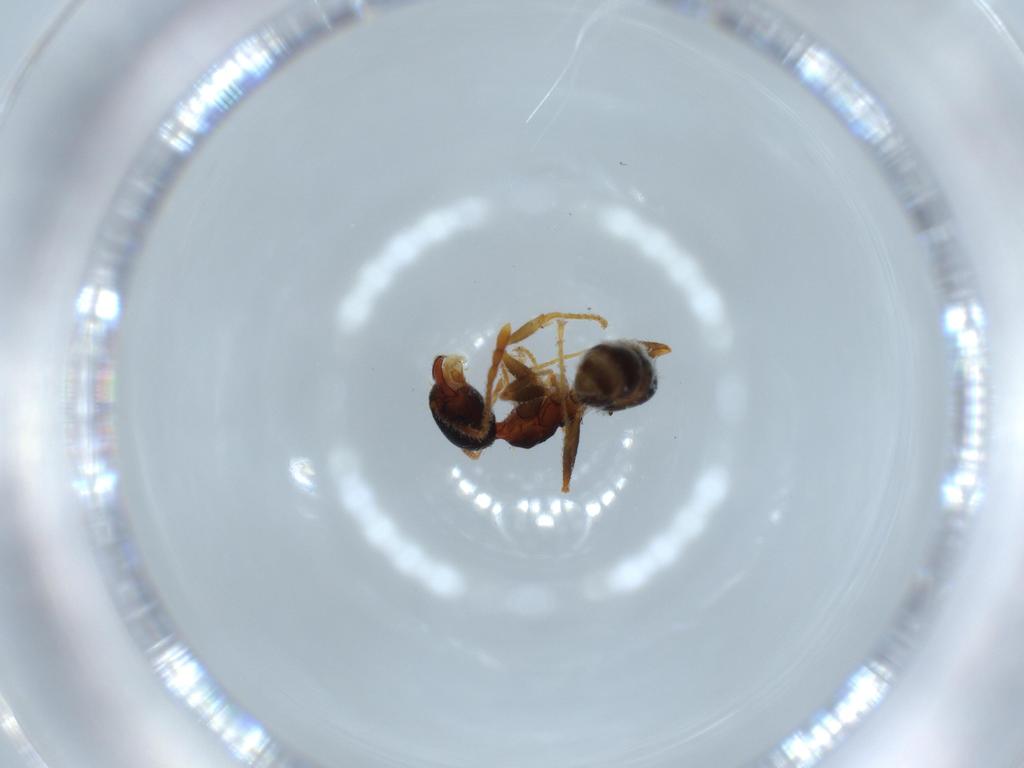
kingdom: Animalia
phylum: Arthropoda
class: Insecta
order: Hymenoptera
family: Formicidae
